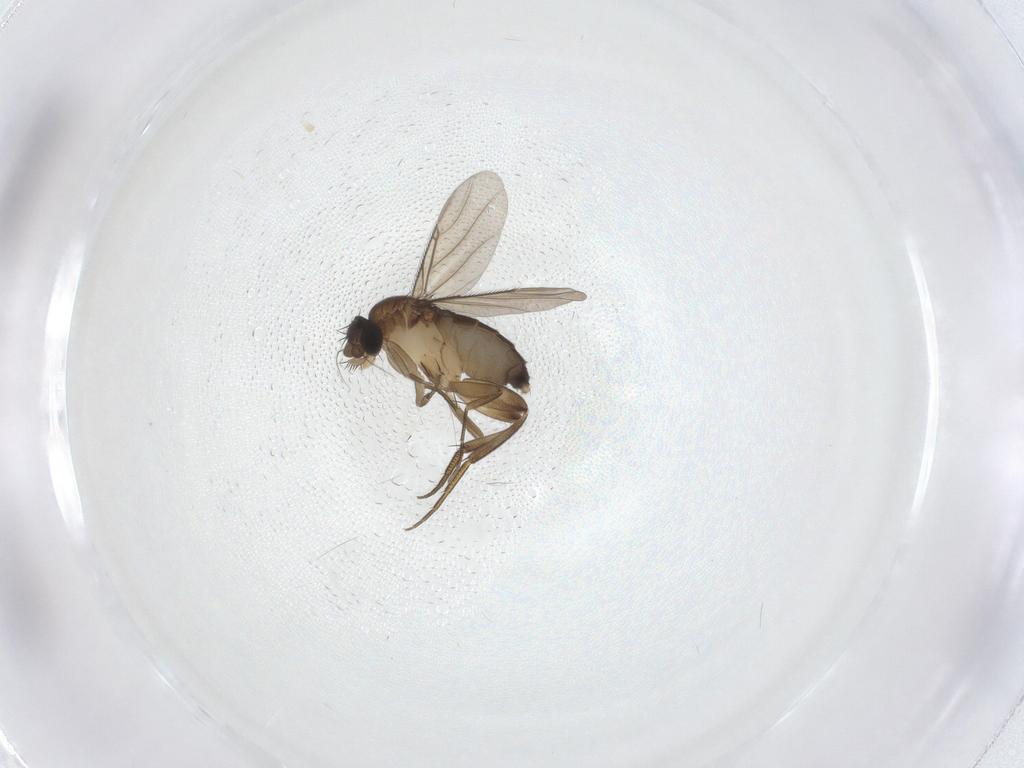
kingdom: Animalia
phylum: Arthropoda
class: Insecta
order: Diptera
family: Phoridae
